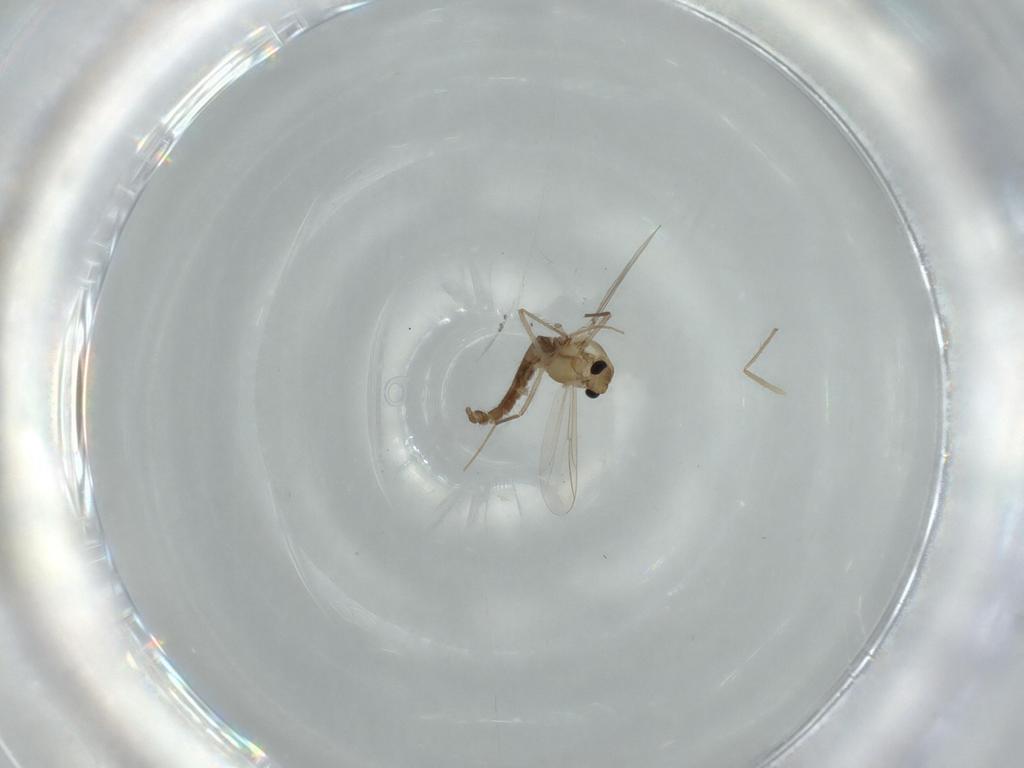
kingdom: Animalia
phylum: Arthropoda
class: Insecta
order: Diptera
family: Chironomidae
